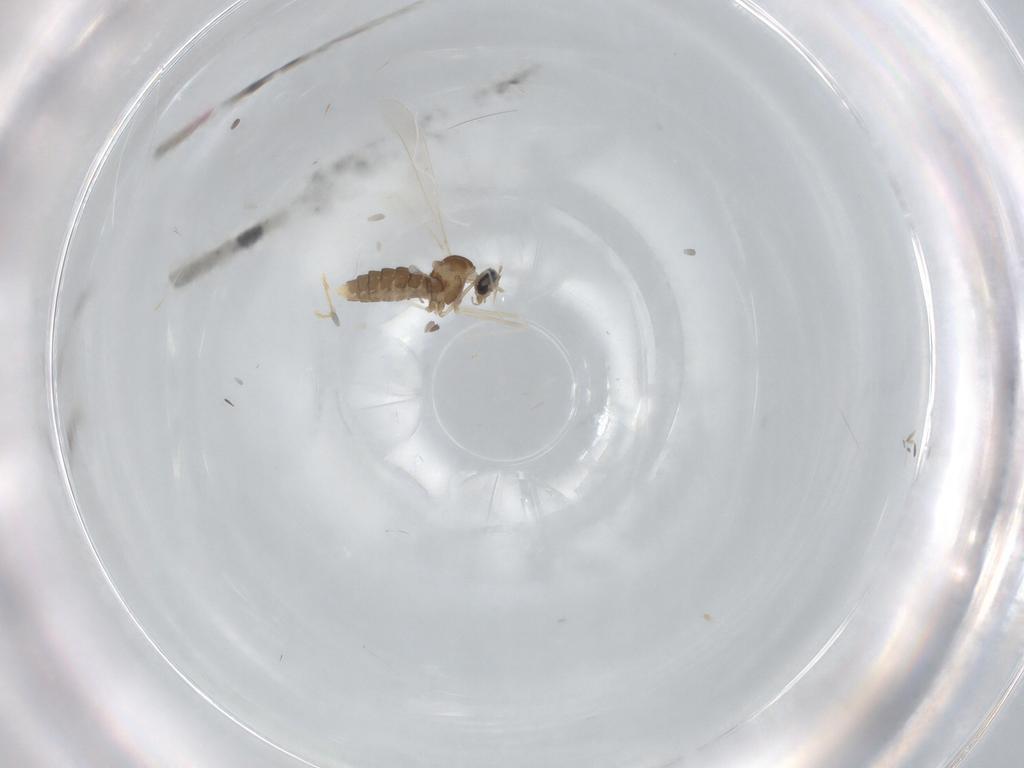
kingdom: Animalia
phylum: Arthropoda
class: Insecta
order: Diptera
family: Cecidomyiidae
